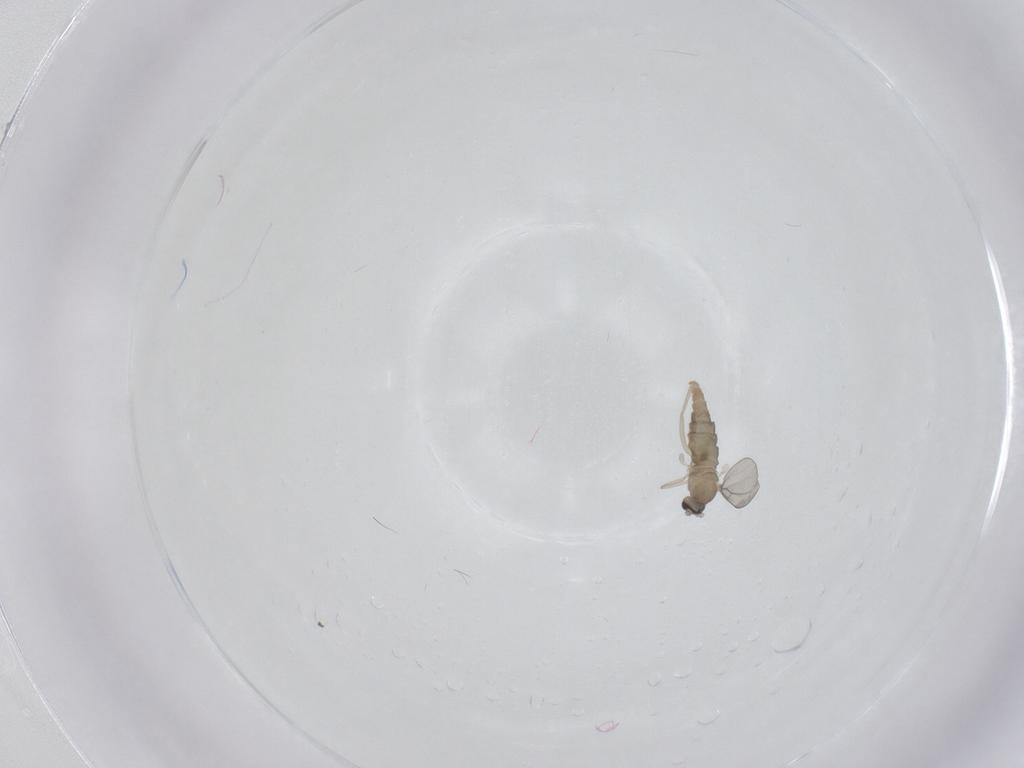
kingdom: Animalia
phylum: Arthropoda
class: Insecta
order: Diptera
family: Cecidomyiidae
